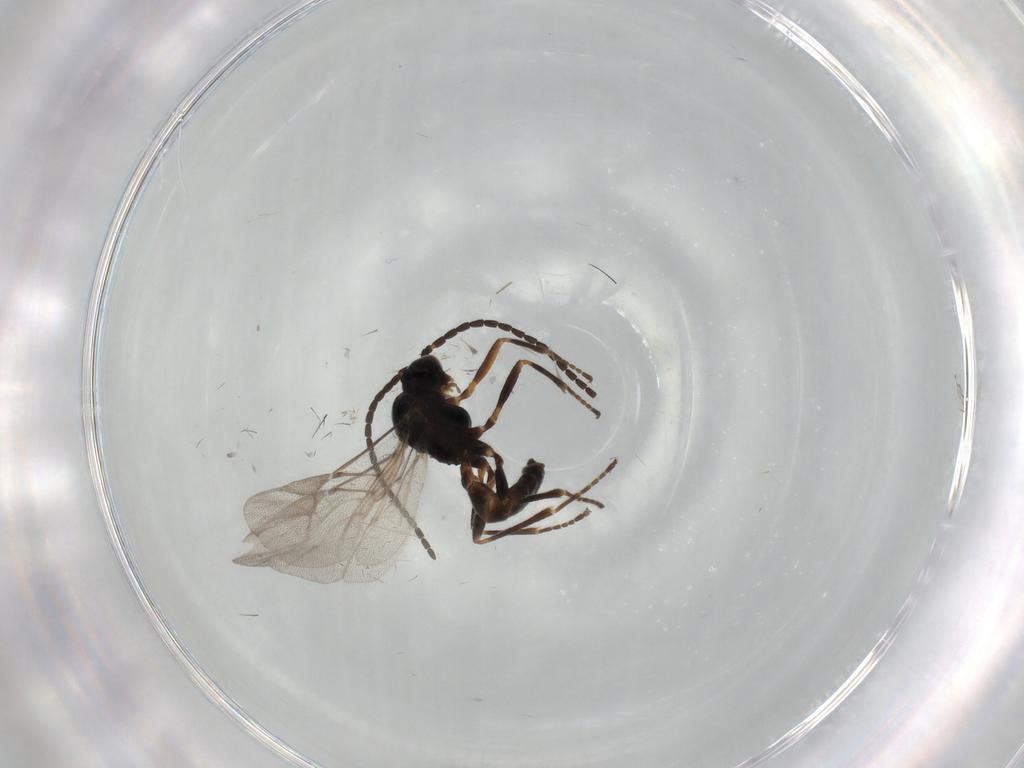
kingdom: Animalia
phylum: Arthropoda
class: Insecta
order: Hymenoptera
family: Braconidae
